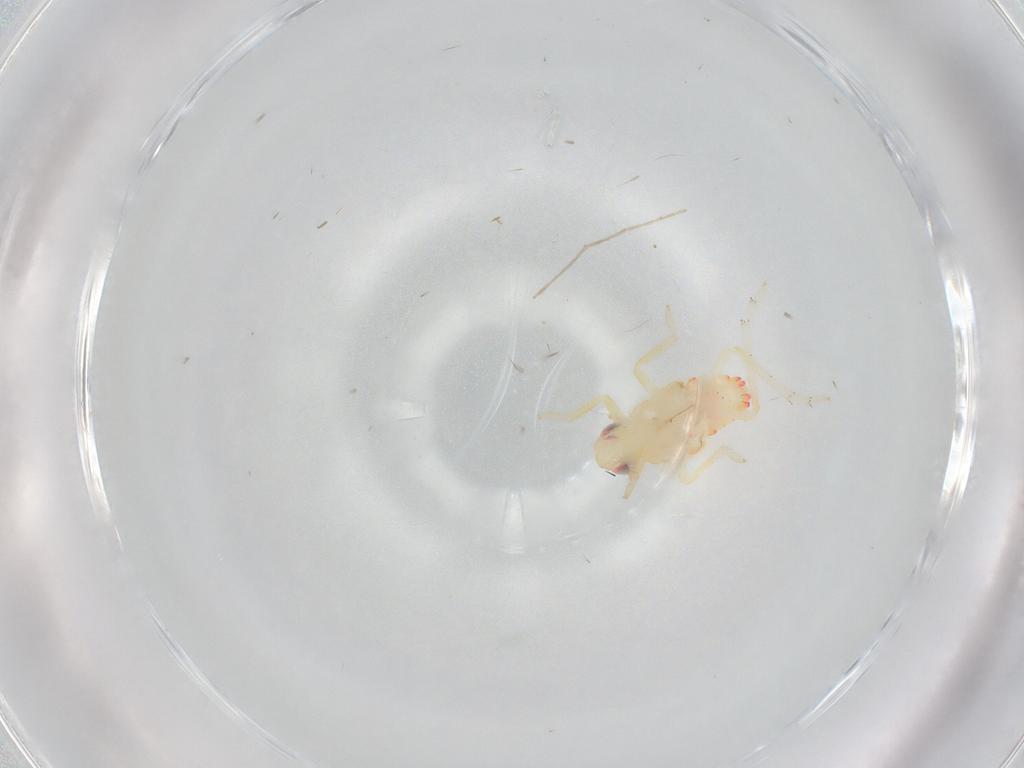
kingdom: Animalia
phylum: Arthropoda
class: Insecta
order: Hemiptera
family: Tropiduchidae
